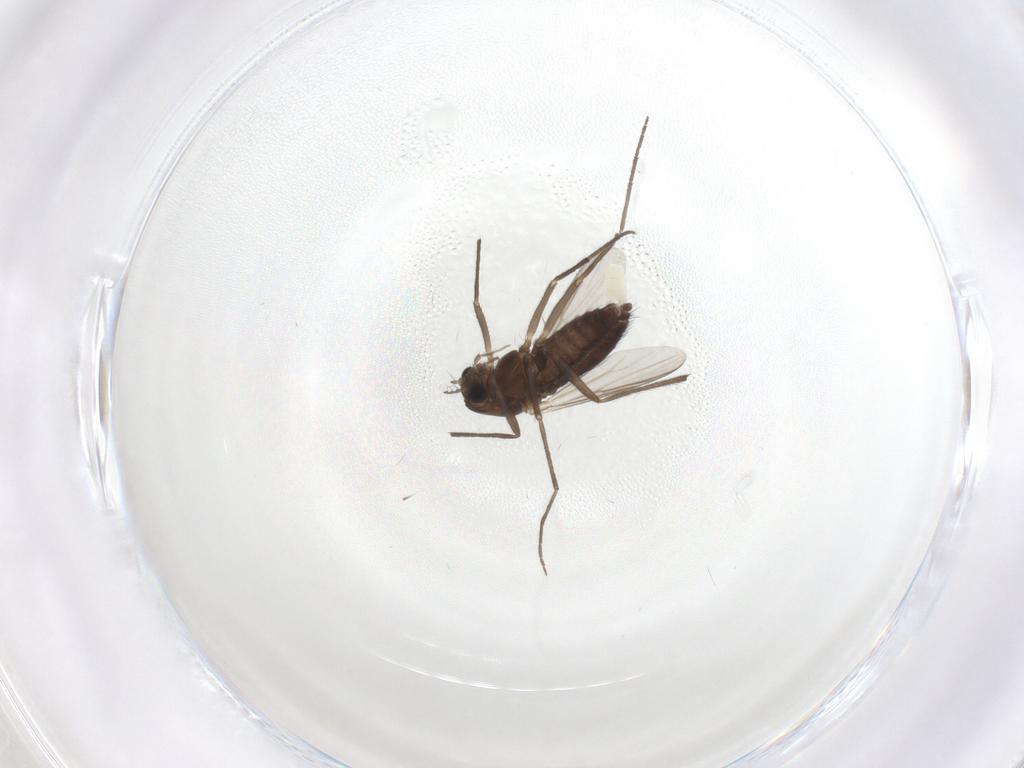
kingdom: Animalia
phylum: Arthropoda
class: Insecta
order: Diptera
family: Chironomidae
